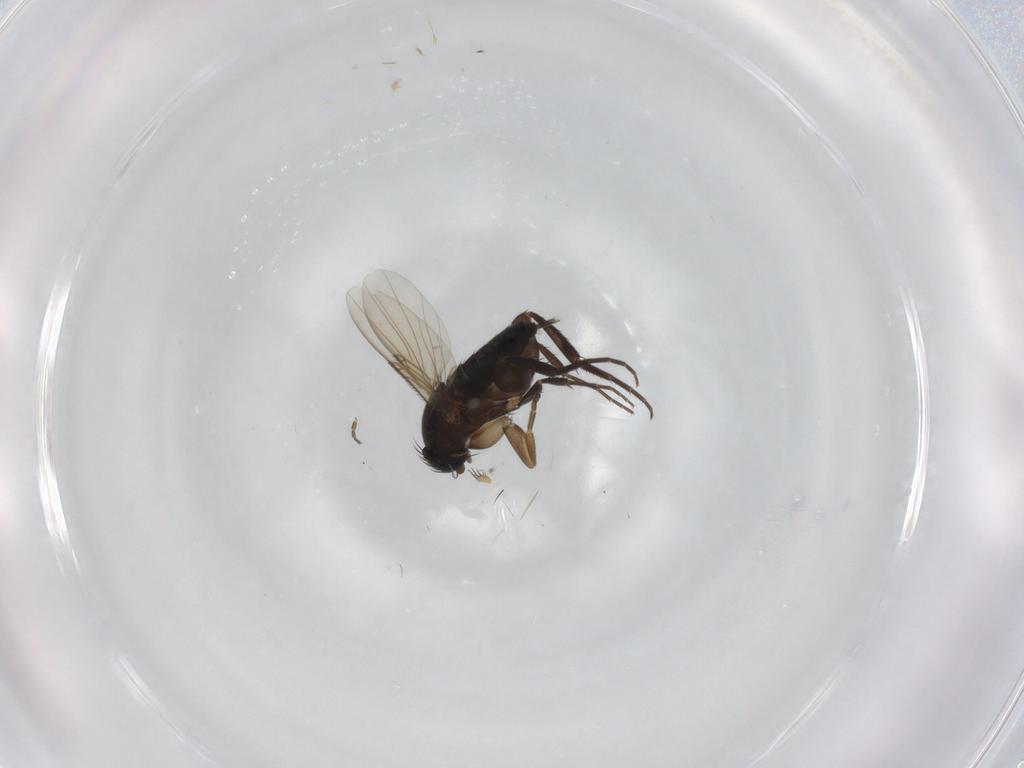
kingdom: Animalia
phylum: Arthropoda
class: Insecta
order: Diptera
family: Phoridae
